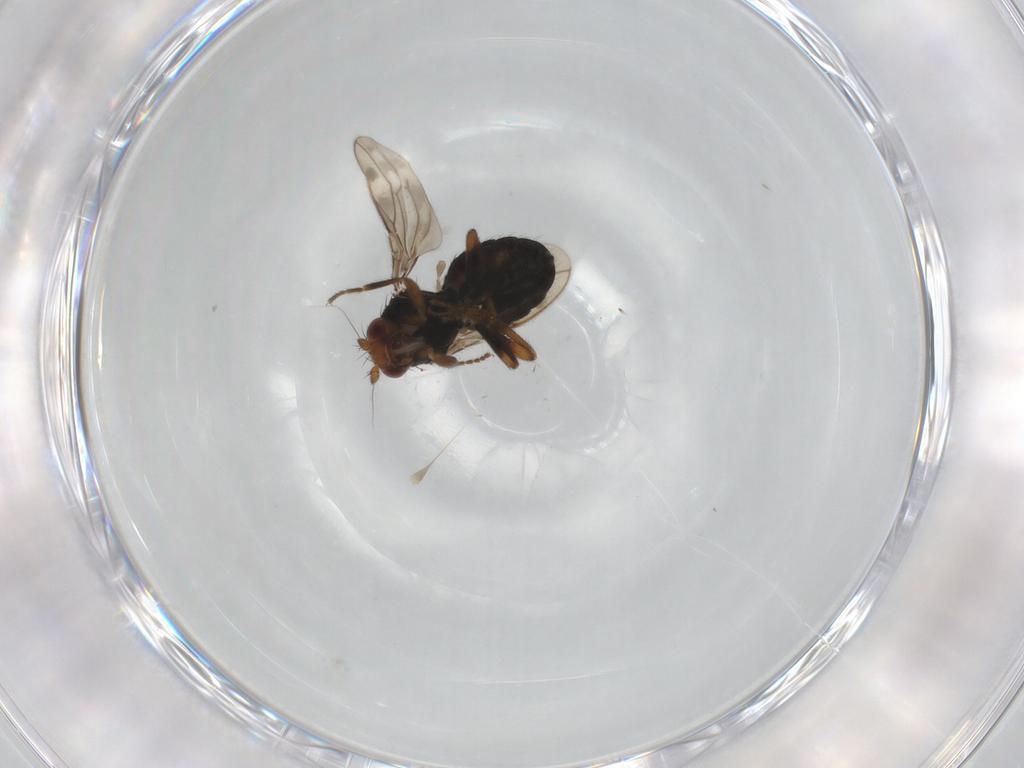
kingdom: Animalia
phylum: Arthropoda
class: Insecta
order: Diptera
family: Sphaeroceridae
